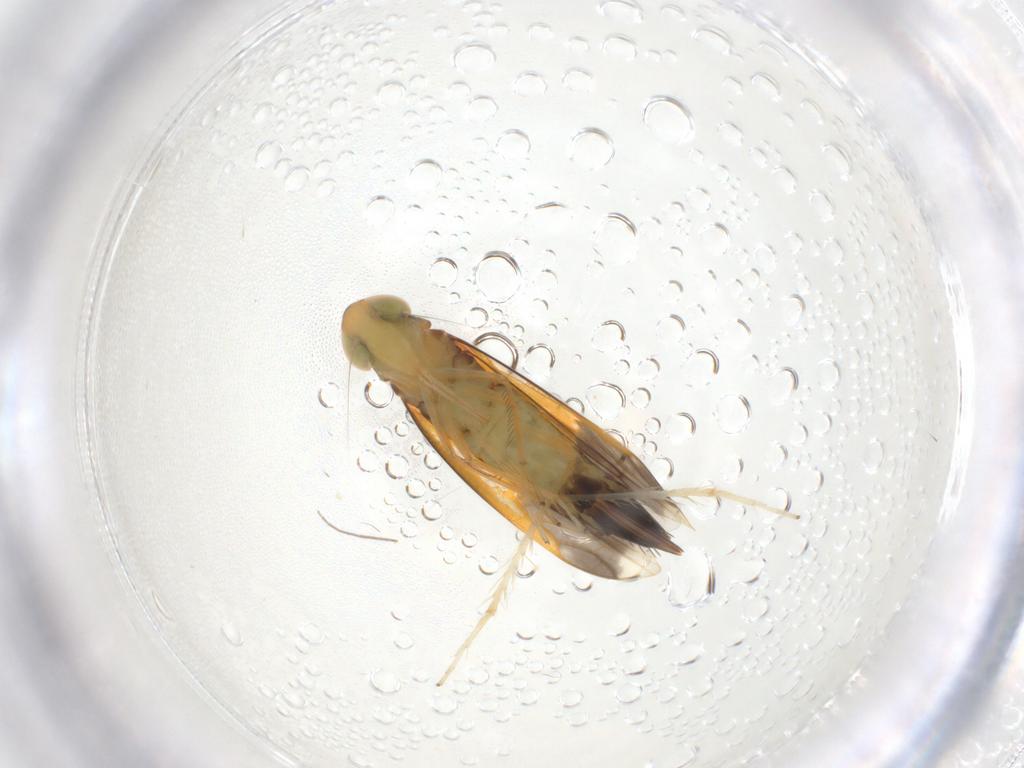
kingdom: Animalia
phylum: Arthropoda
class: Insecta
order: Hemiptera
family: Cicadellidae
